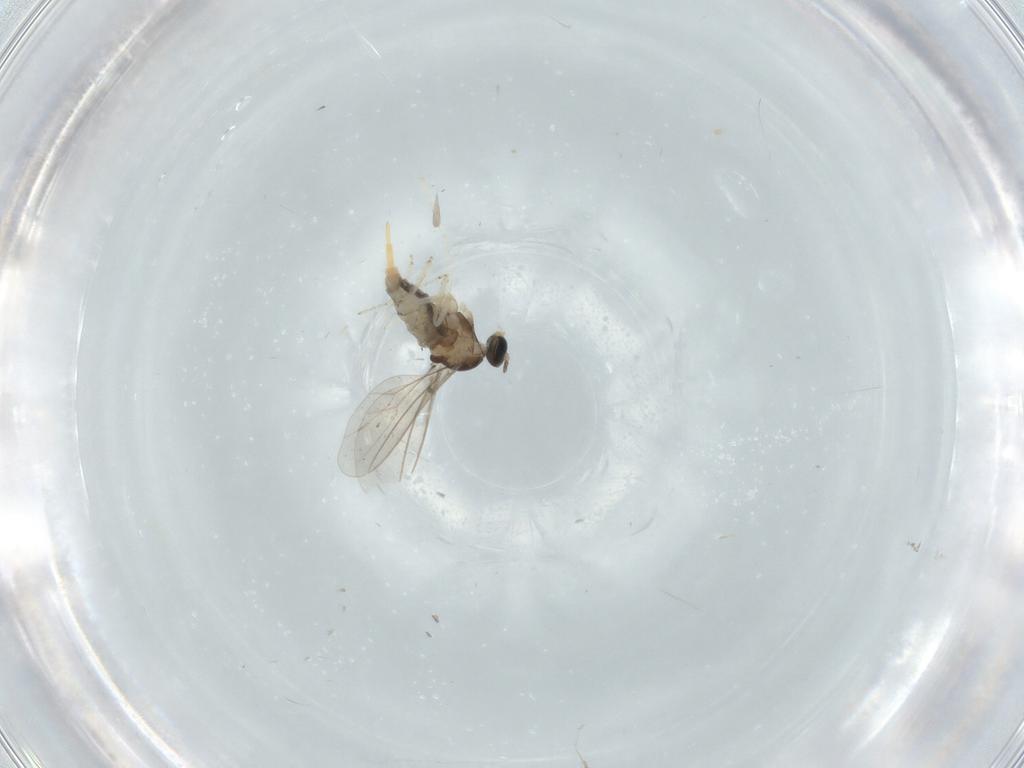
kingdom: Animalia
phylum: Arthropoda
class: Insecta
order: Diptera
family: Cecidomyiidae
